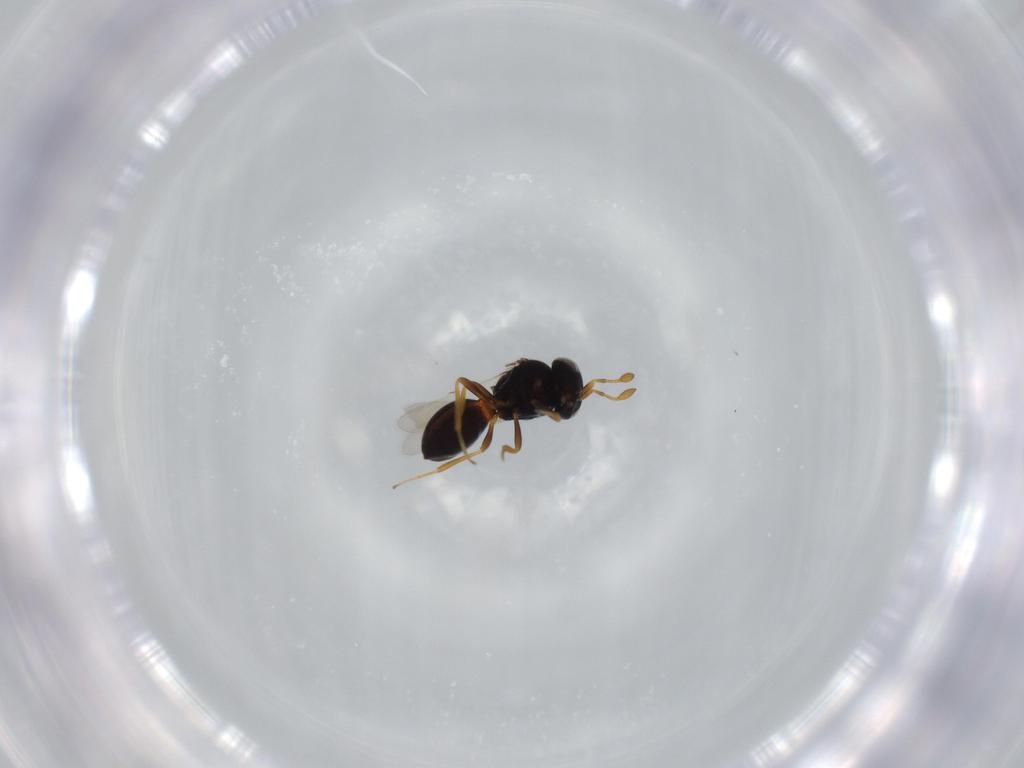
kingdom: Animalia
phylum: Arthropoda
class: Insecta
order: Hymenoptera
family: Scelionidae
